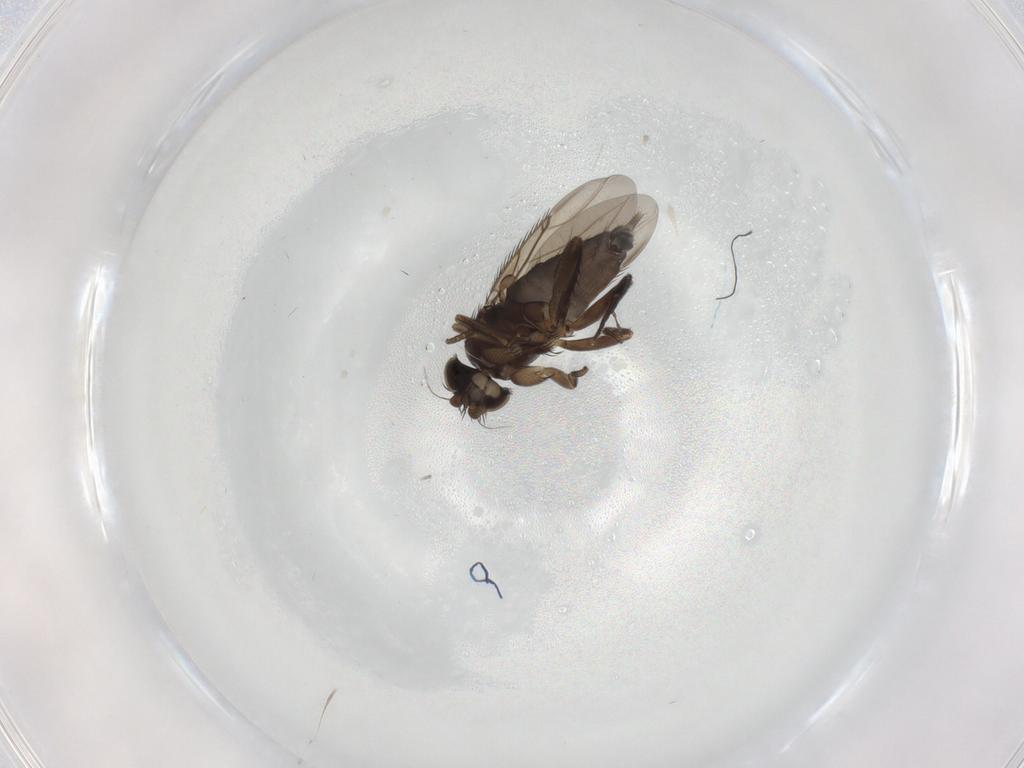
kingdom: Animalia
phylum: Arthropoda
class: Insecta
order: Diptera
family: Phoridae
